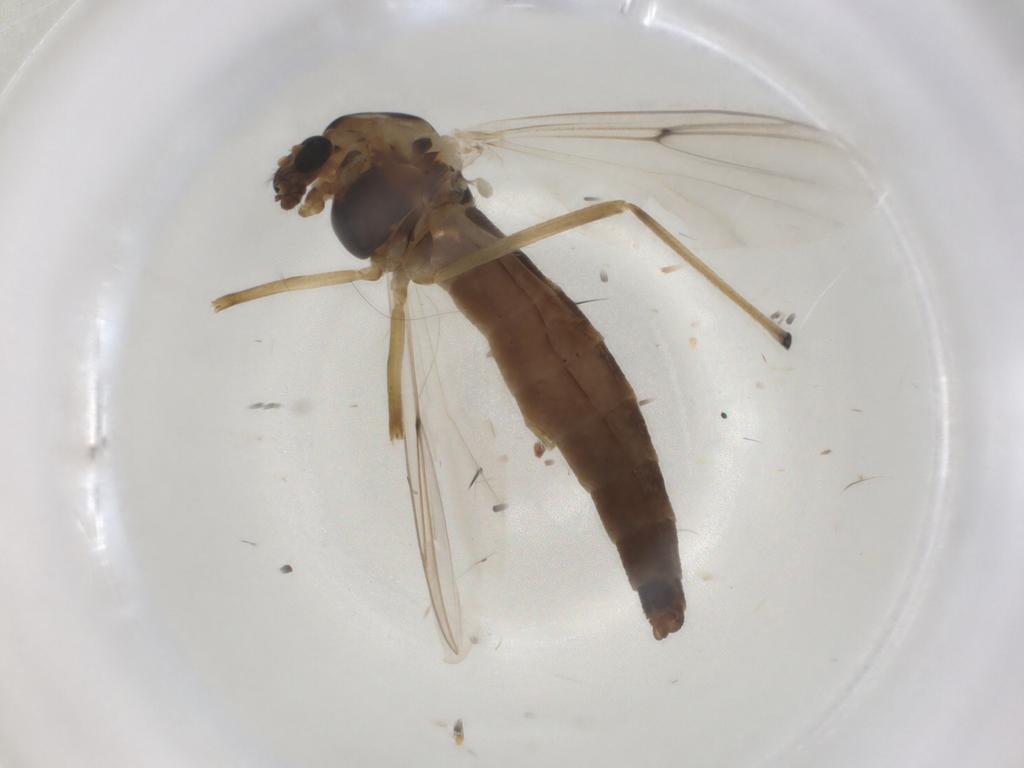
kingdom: Animalia
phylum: Arthropoda
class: Insecta
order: Diptera
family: Chironomidae
